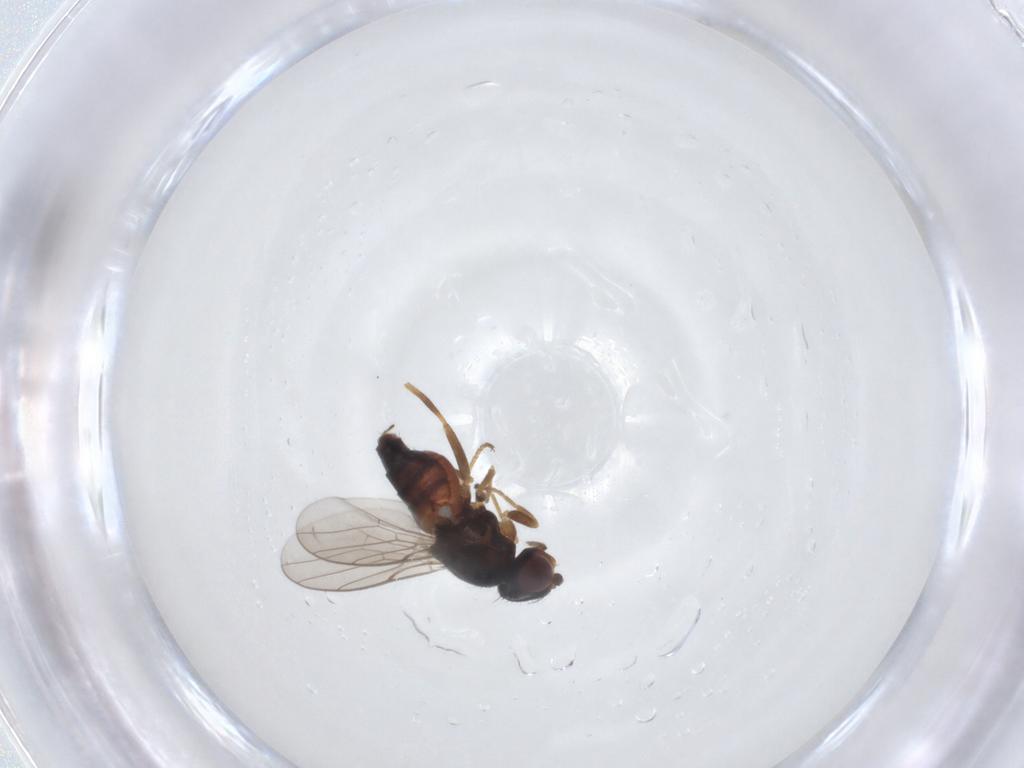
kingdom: Animalia
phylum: Arthropoda
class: Insecta
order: Diptera
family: Chloropidae
